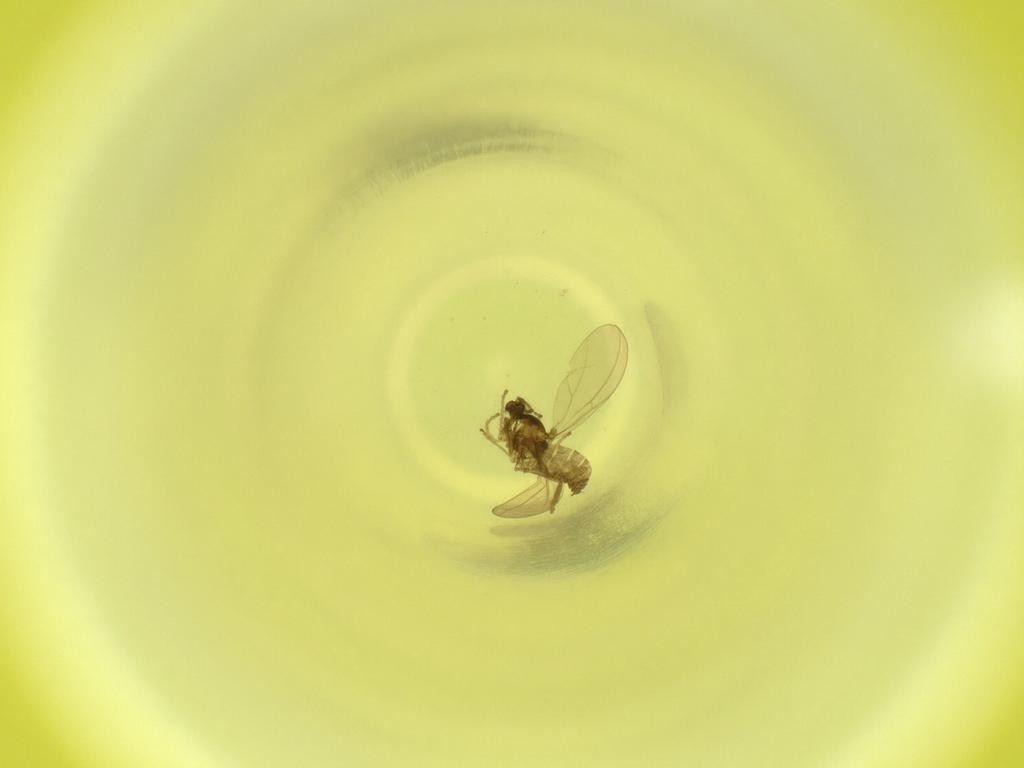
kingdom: Animalia
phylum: Arthropoda
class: Insecta
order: Diptera
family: Cecidomyiidae
